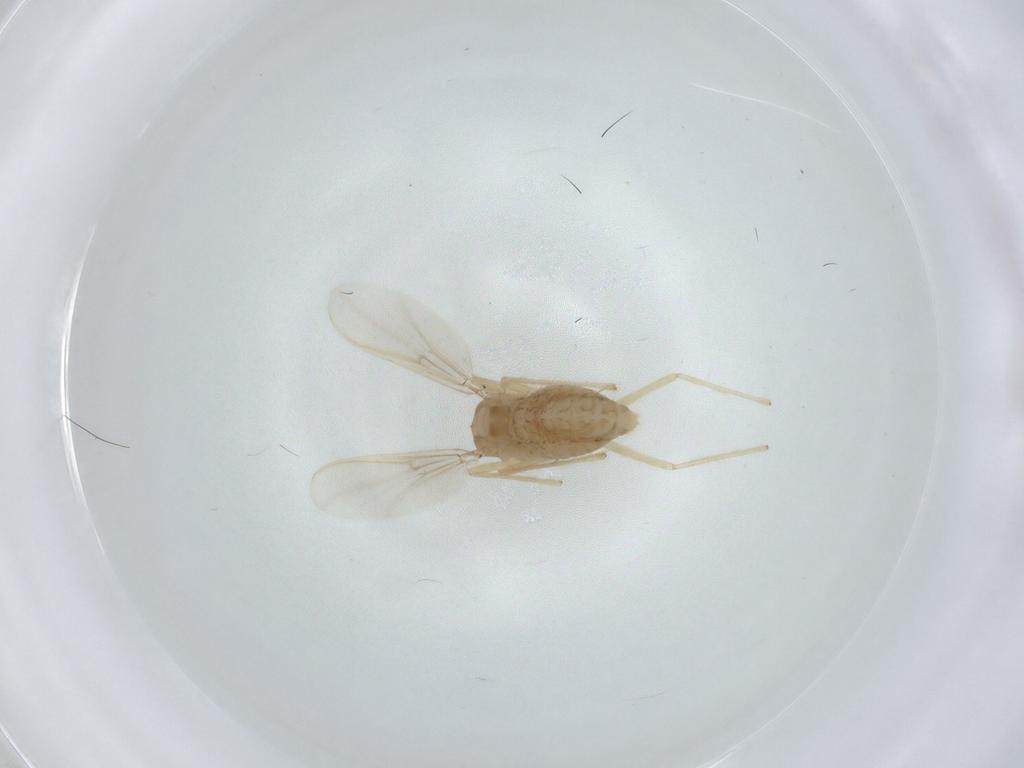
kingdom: Animalia
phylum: Arthropoda
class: Insecta
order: Diptera
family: Chironomidae
